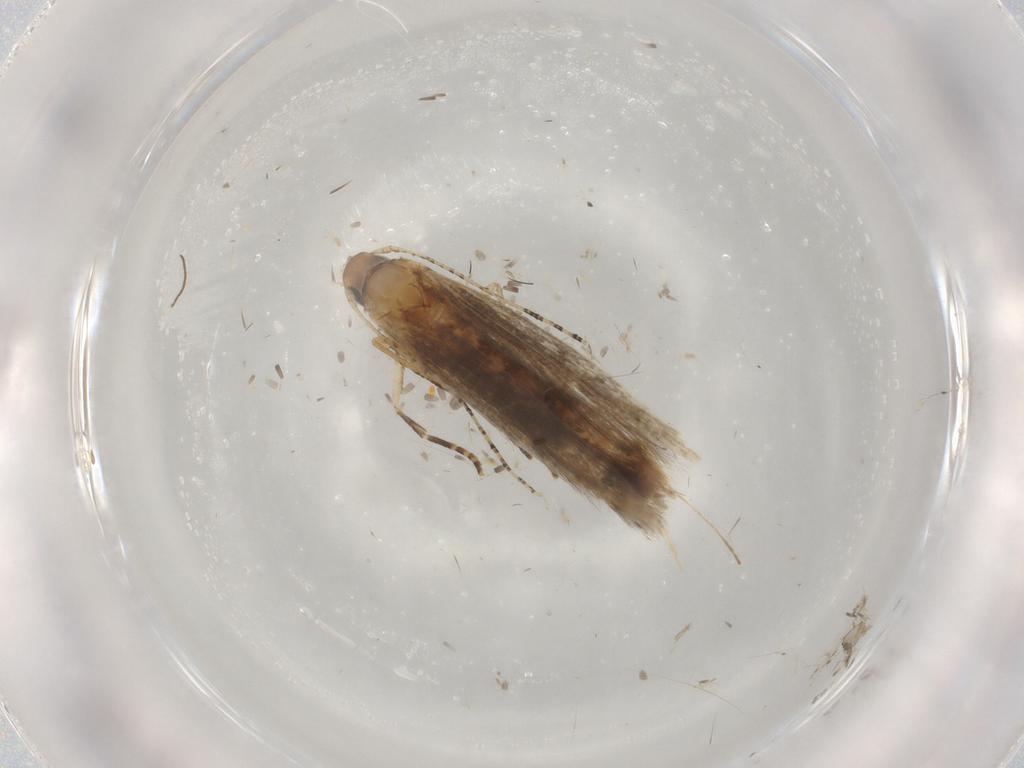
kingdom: Animalia
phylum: Arthropoda
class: Insecta
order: Lepidoptera
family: Crambidae
